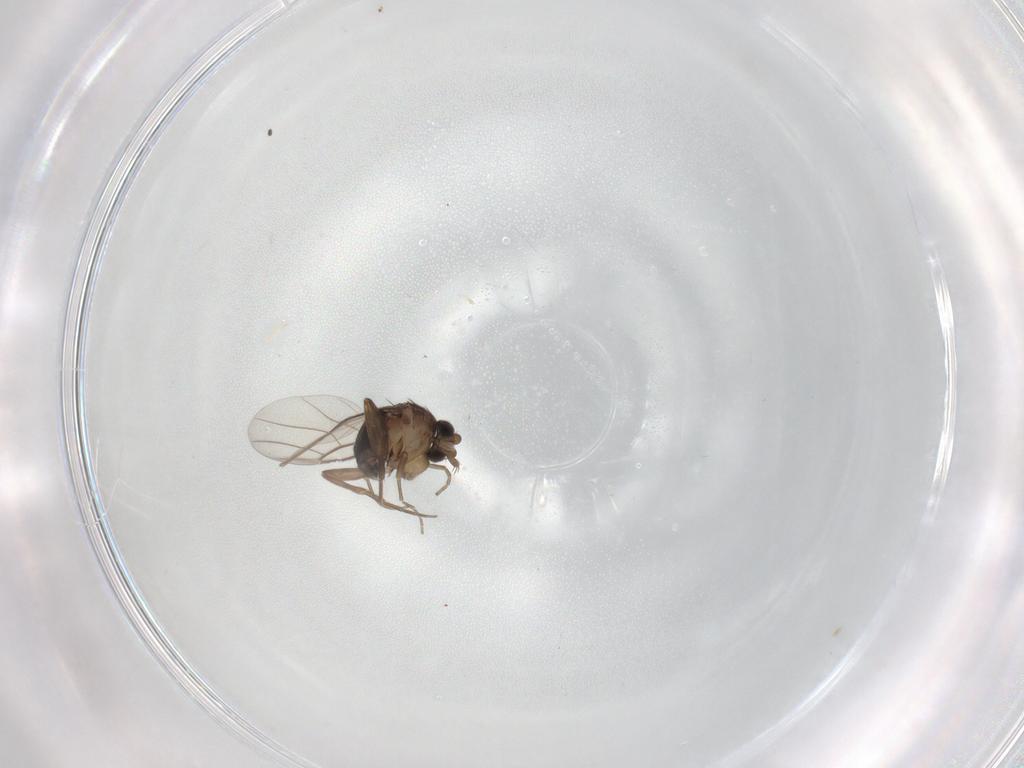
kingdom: Animalia
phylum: Arthropoda
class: Insecta
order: Diptera
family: Phoridae
